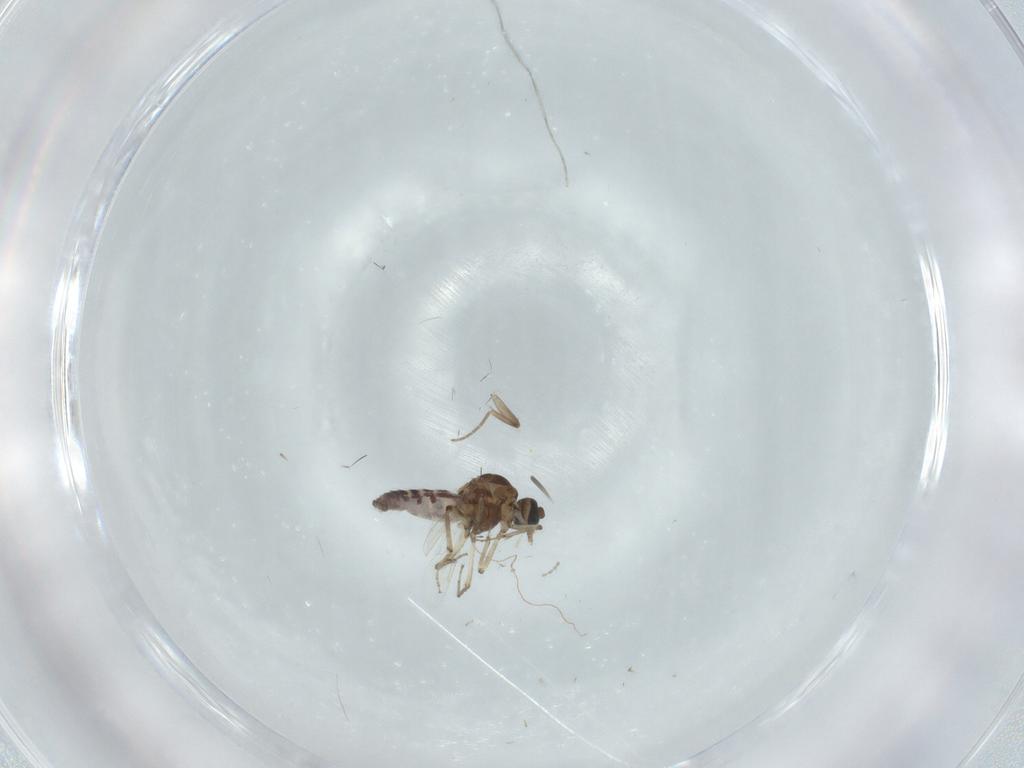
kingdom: Animalia
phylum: Arthropoda
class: Insecta
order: Diptera
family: Ceratopogonidae
